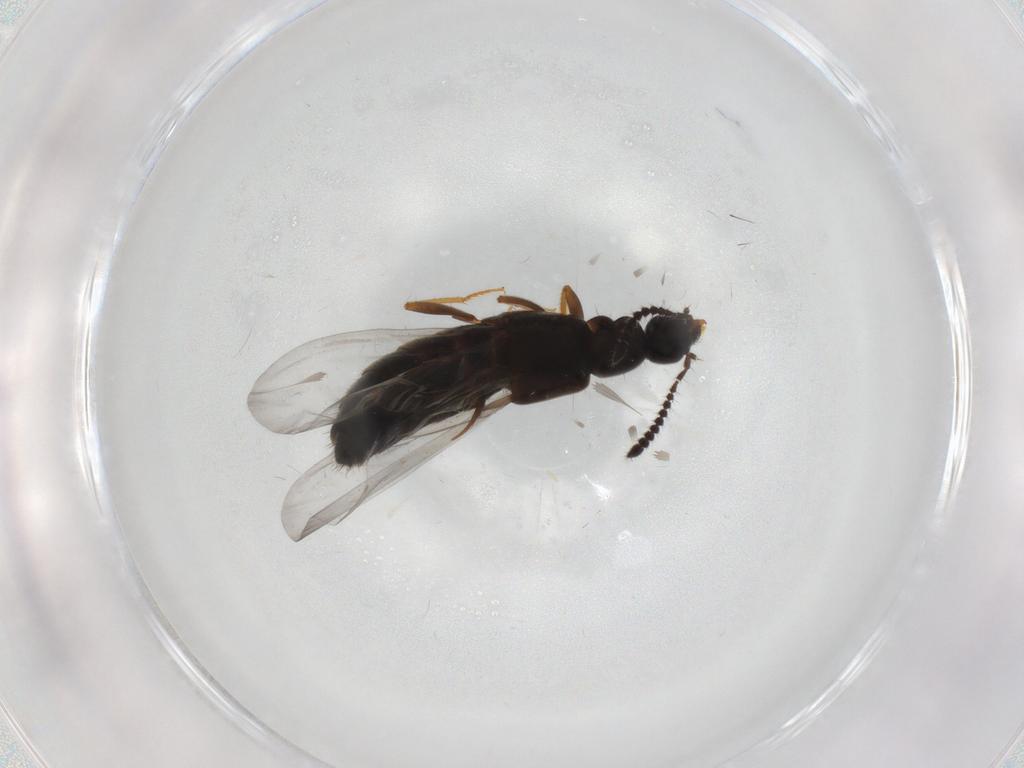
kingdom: Animalia
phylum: Arthropoda
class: Insecta
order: Coleoptera
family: Staphylinidae
